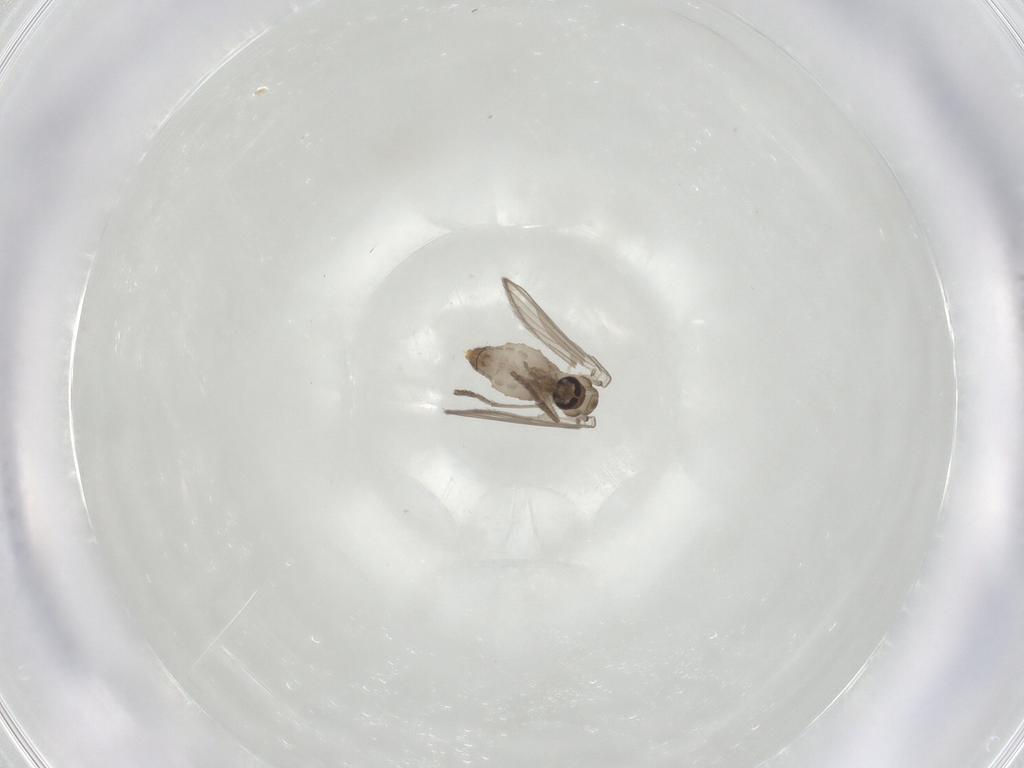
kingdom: Animalia
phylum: Arthropoda
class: Insecta
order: Diptera
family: Psychodidae
